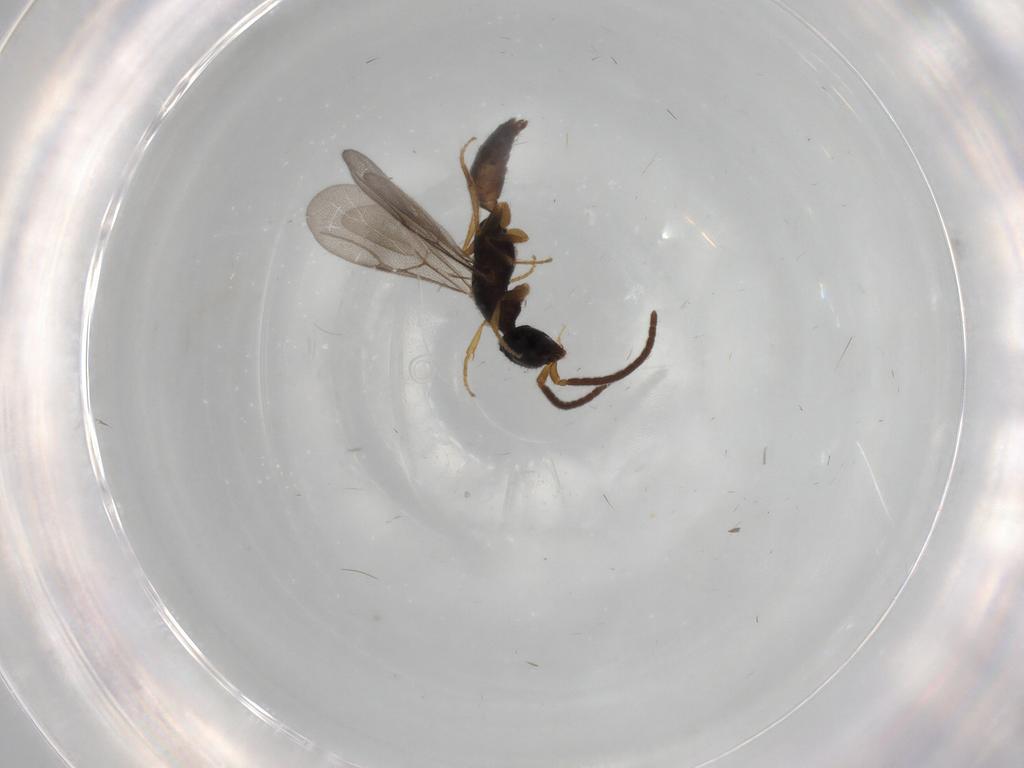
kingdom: Animalia
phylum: Arthropoda
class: Insecta
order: Hymenoptera
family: Bethylidae
